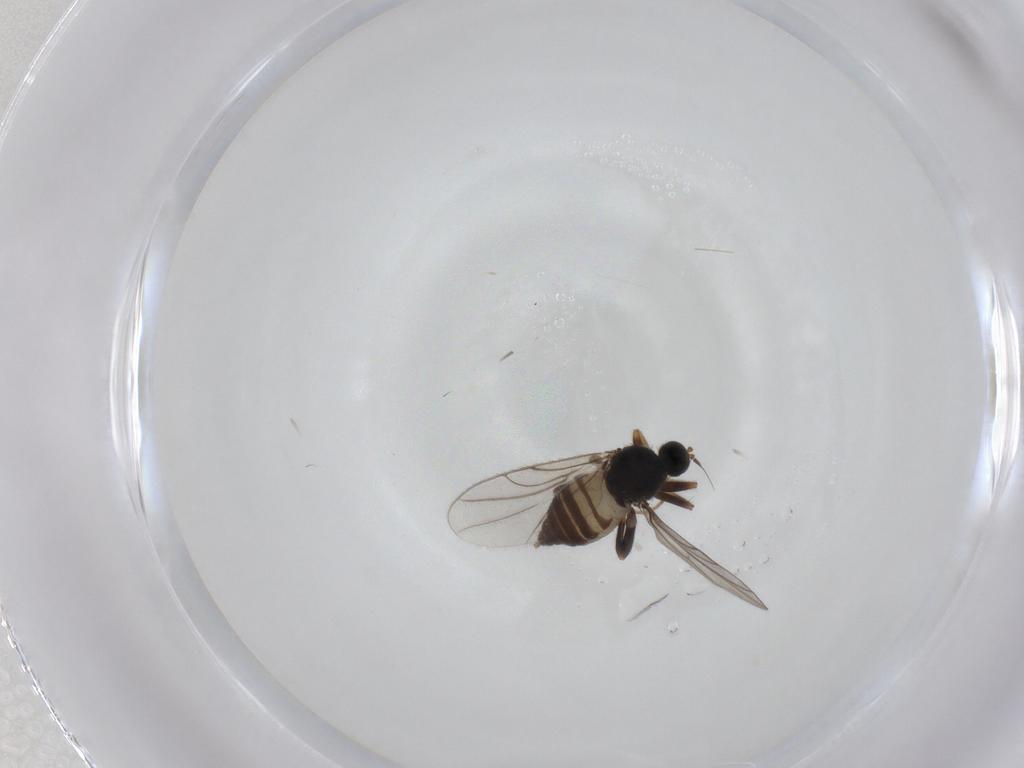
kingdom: Animalia
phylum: Arthropoda
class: Insecta
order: Diptera
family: Hybotidae
